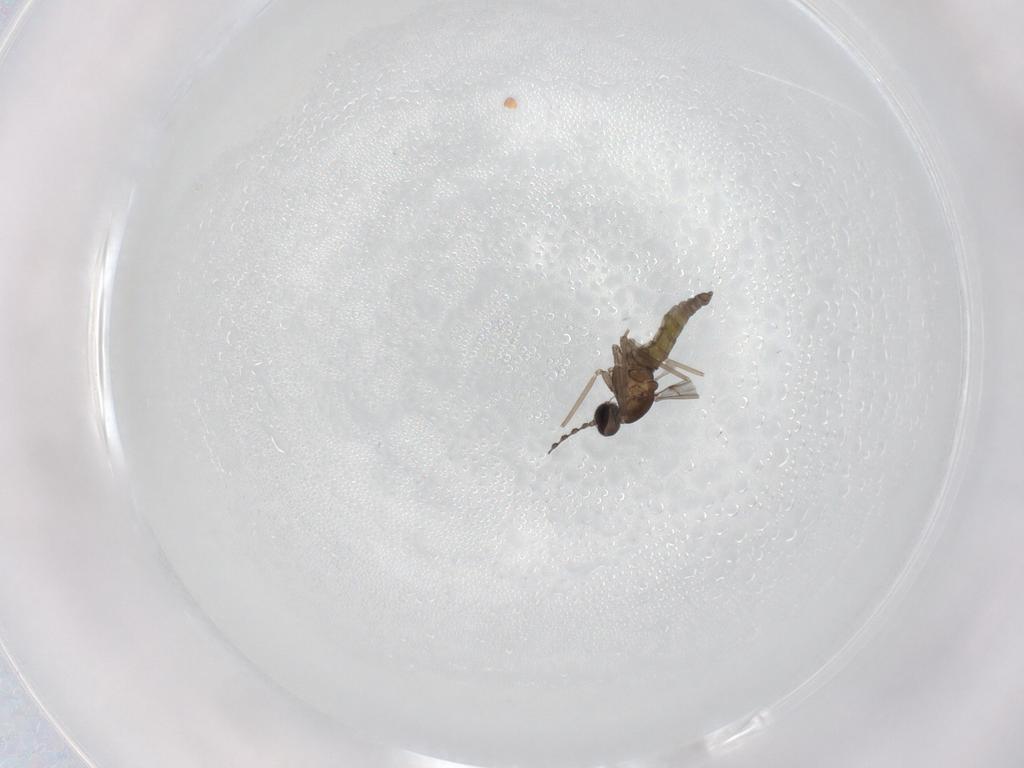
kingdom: Animalia
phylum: Arthropoda
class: Insecta
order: Diptera
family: Cecidomyiidae
